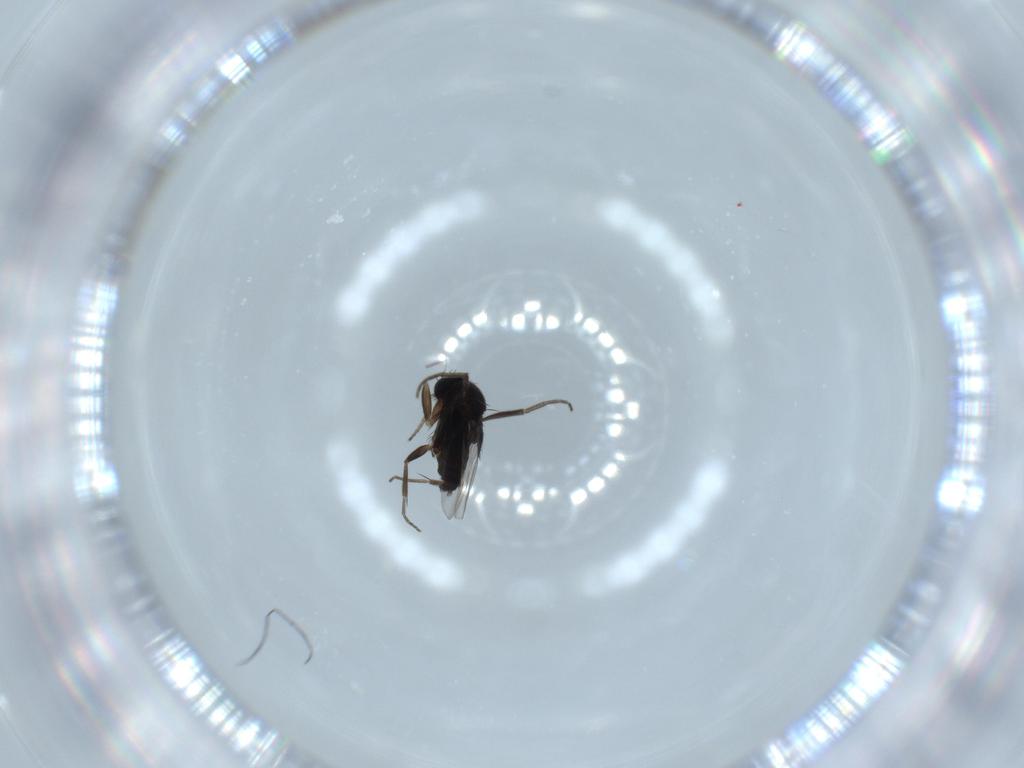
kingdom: Animalia
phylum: Arthropoda
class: Insecta
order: Diptera
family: Phoridae
